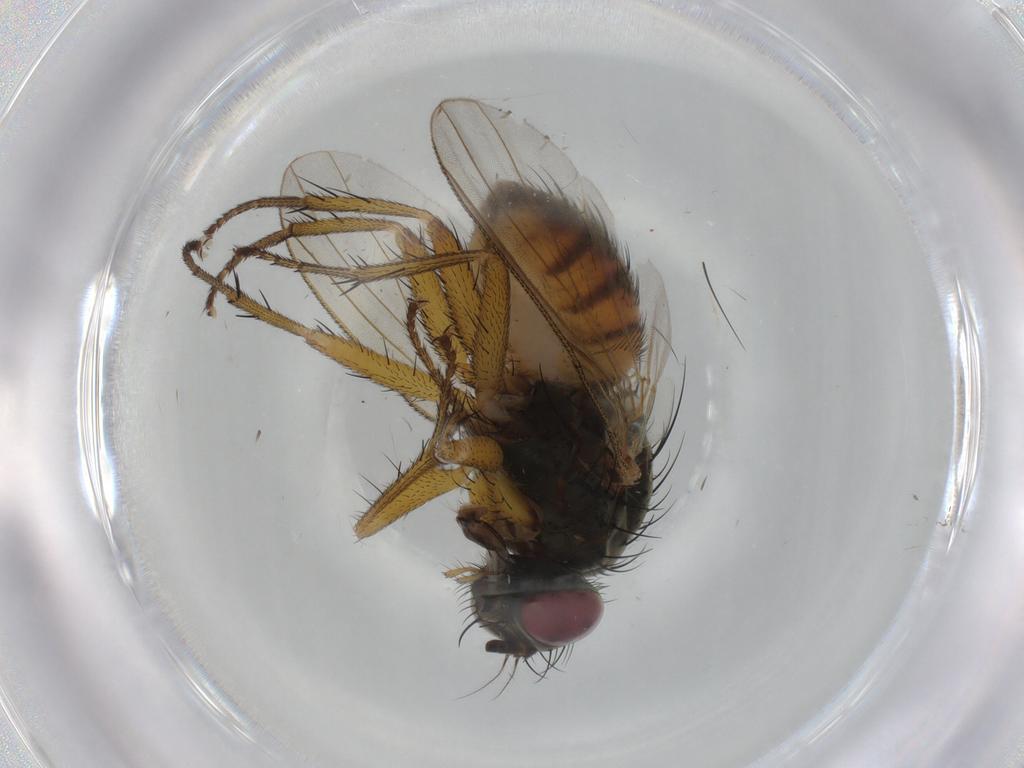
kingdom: Animalia
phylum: Arthropoda
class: Insecta
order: Diptera
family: Muscidae
